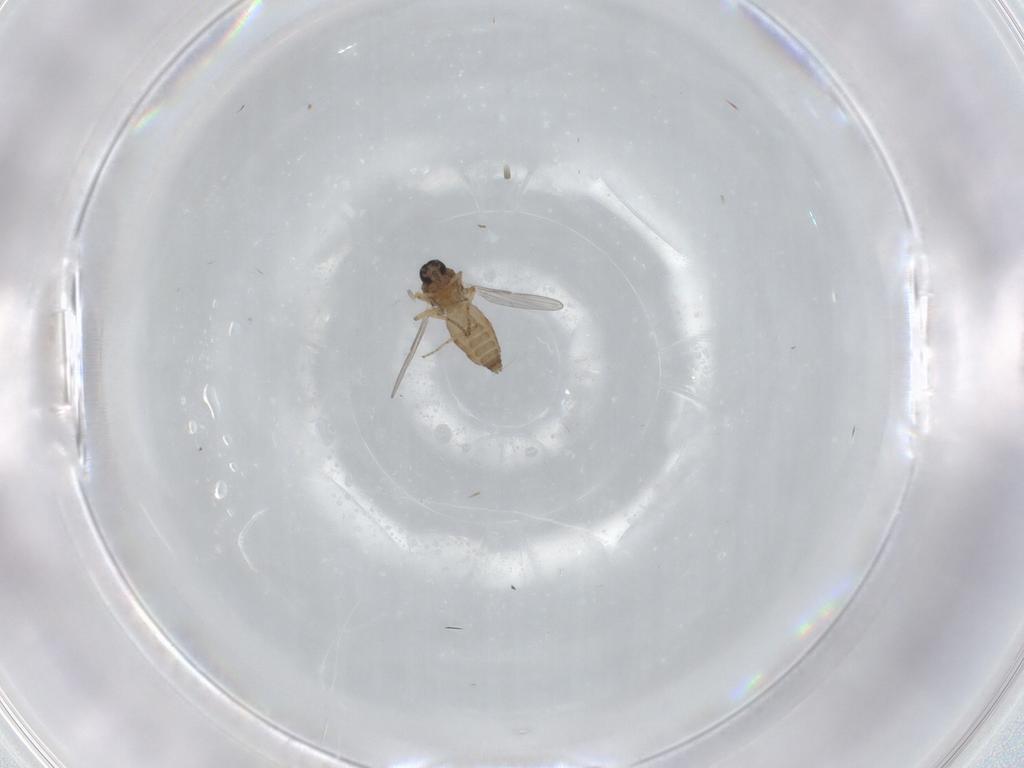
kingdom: Animalia
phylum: Arthropoda
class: Insecta
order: Diptera
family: Ceratopogonidae
